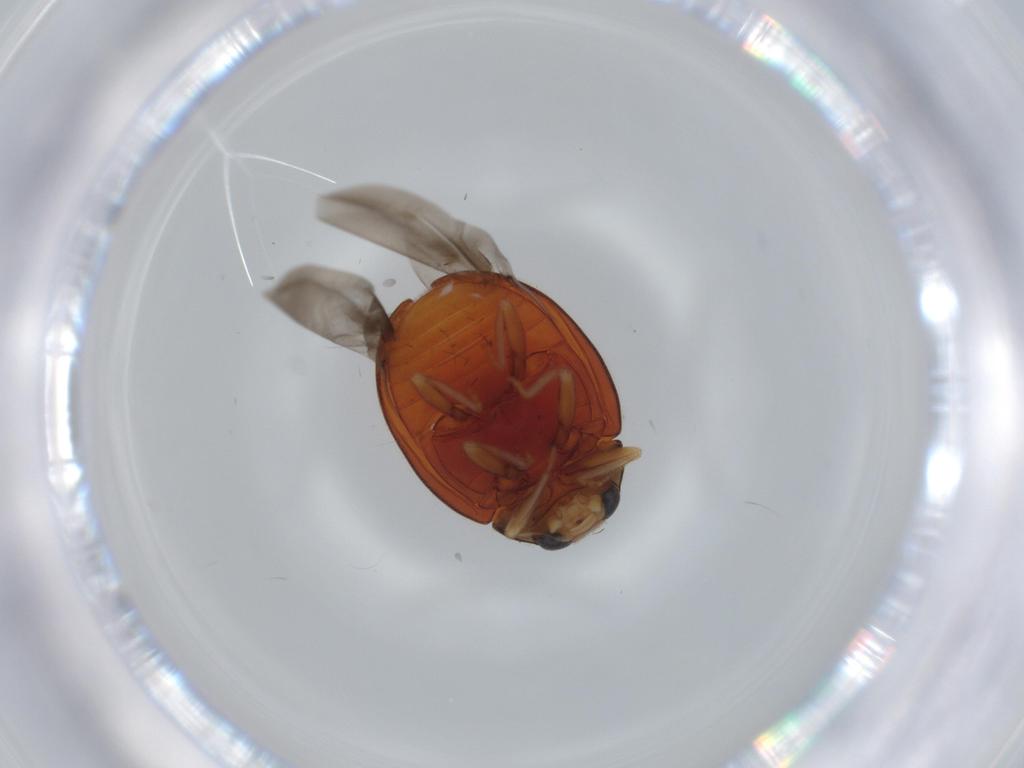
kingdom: Animalia
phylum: Arthropoda
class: Insecta
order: Coleoptera
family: Coccinellidae
